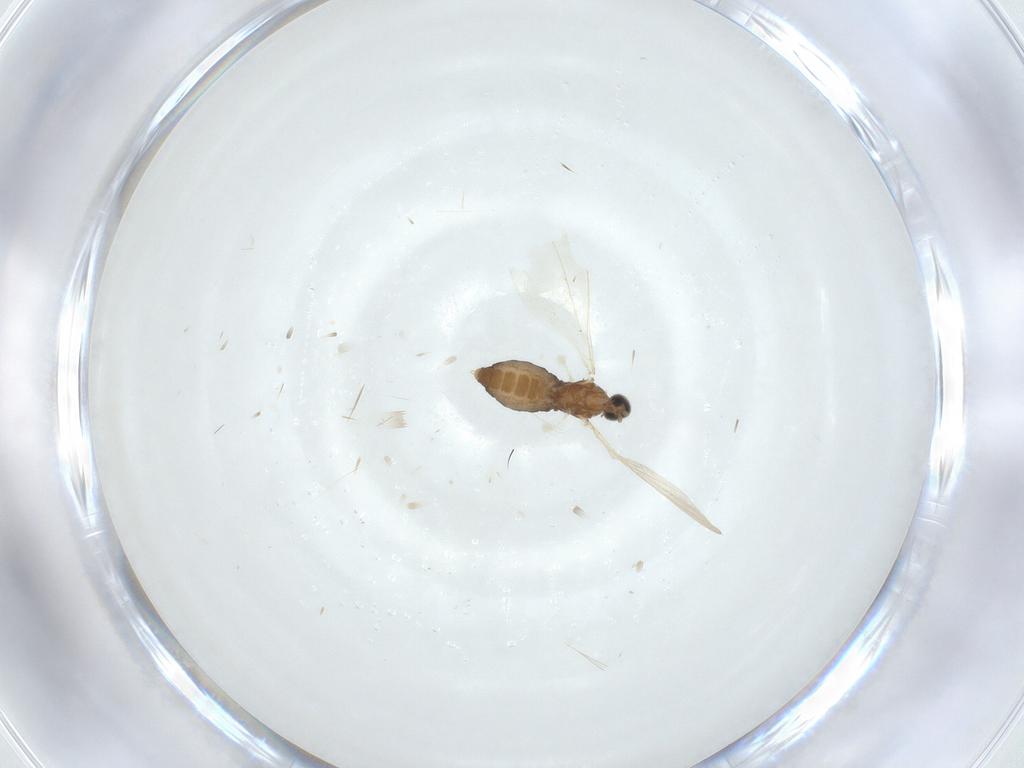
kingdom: Animalia
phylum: Arthropoda
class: Insecta
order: Diptera
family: Cecidomyiidae
